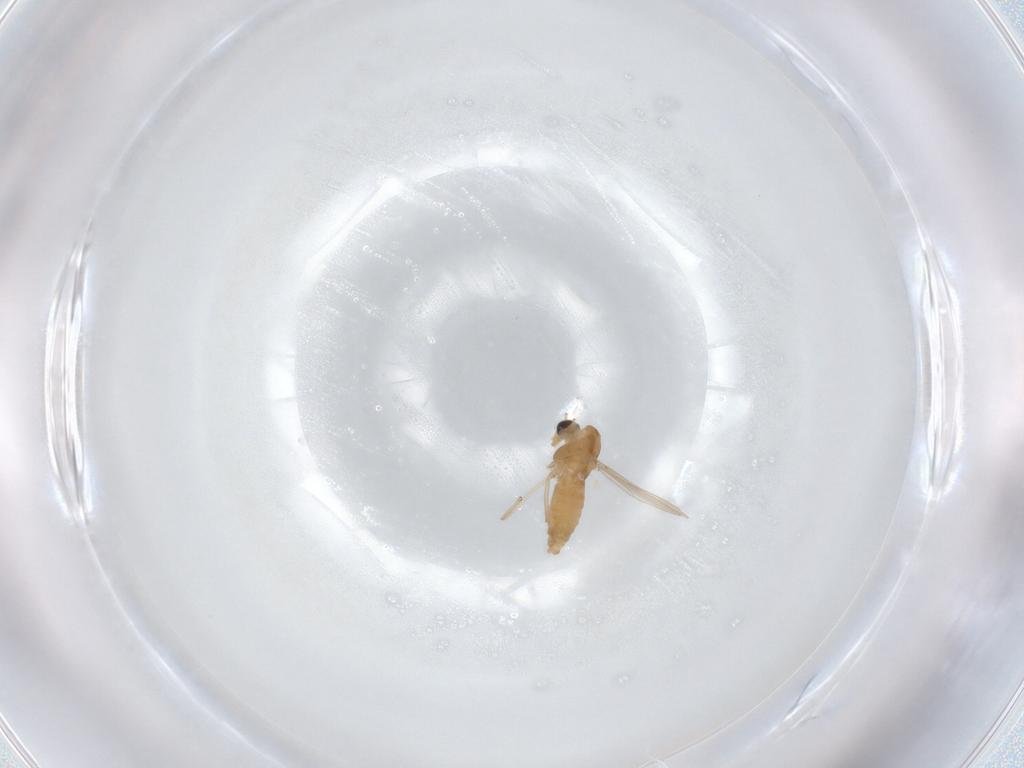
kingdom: Animalia
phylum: Arthropoda
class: Insecta
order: Diptera
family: Chironomidae
